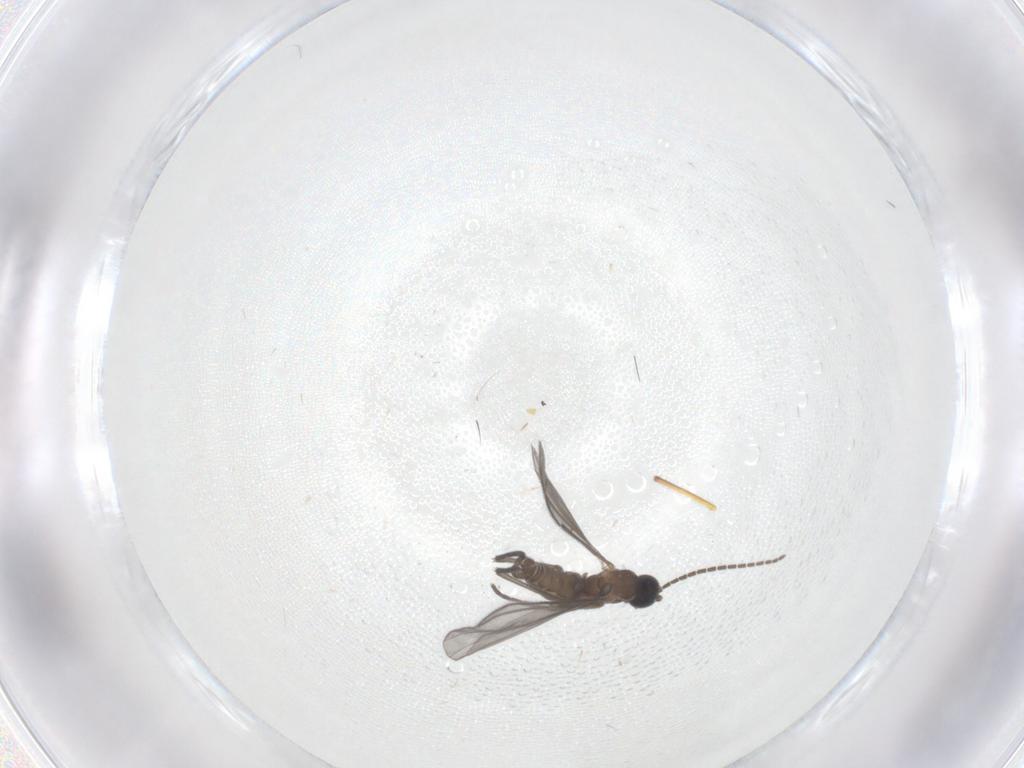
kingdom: Animalia
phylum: Arthropoda
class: Insecta
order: Diptera
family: Sciaridae
